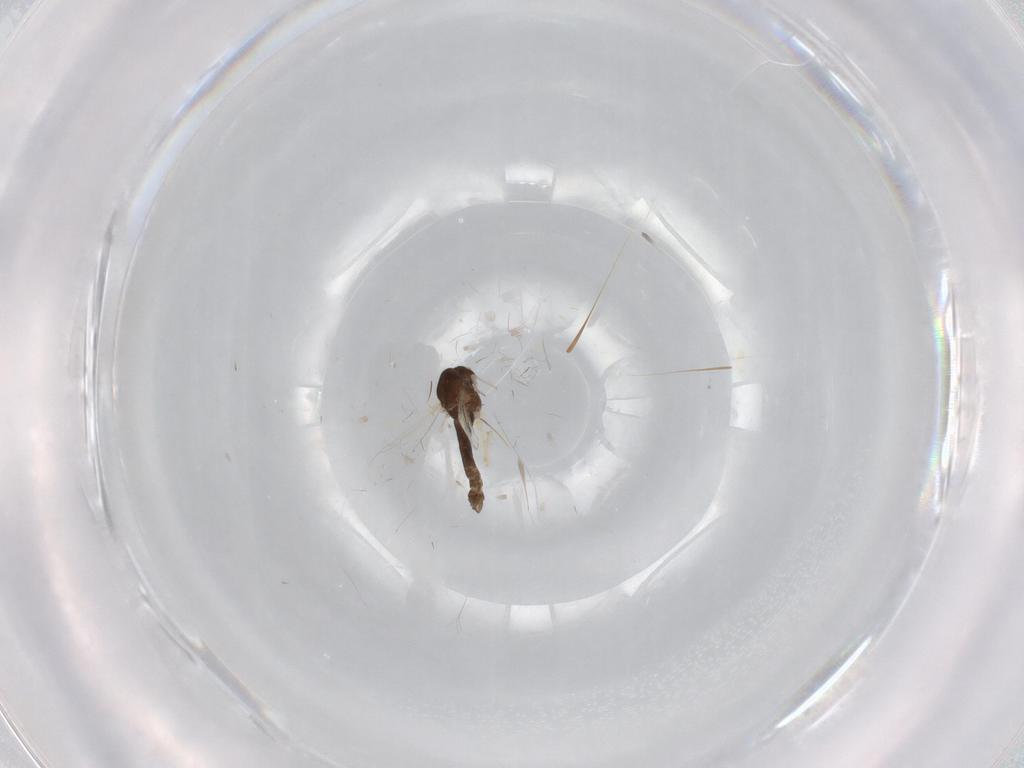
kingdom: Animalia
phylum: Arthropoda
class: Insecta
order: Diptera
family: Chironomidae
